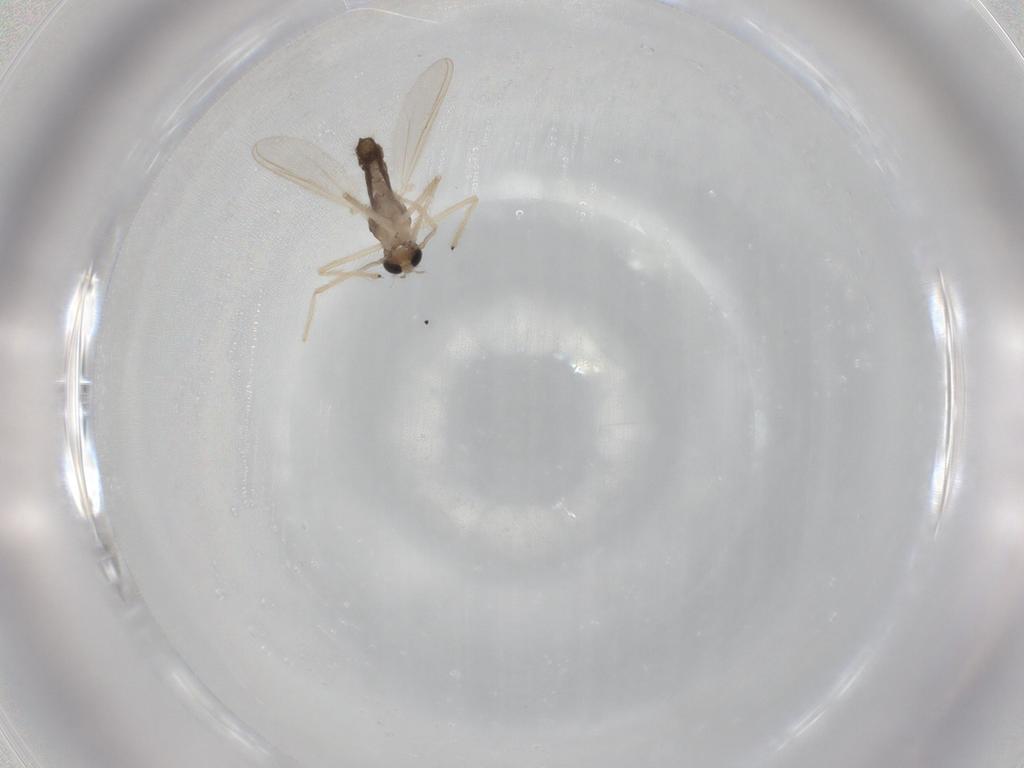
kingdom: Animalia
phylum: Arthropoda
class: Insecta
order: Diptera
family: Chironomidae
